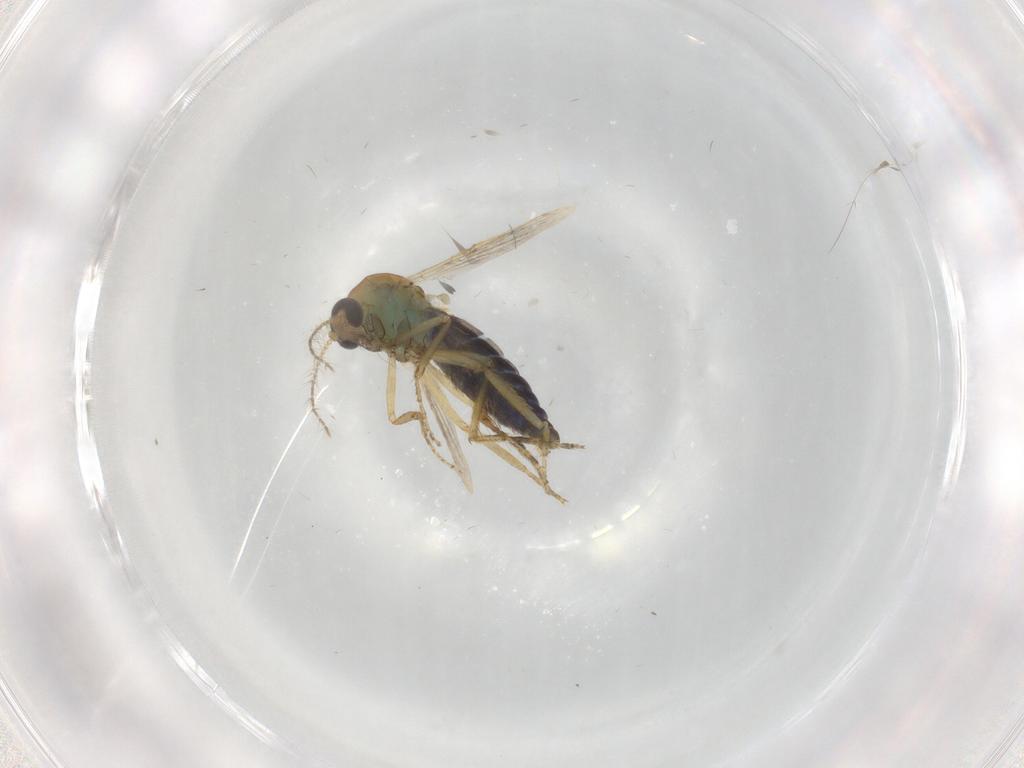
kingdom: Animalia
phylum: Arthropoda
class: Insecta
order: Diptera
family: Ceratopogonidae
